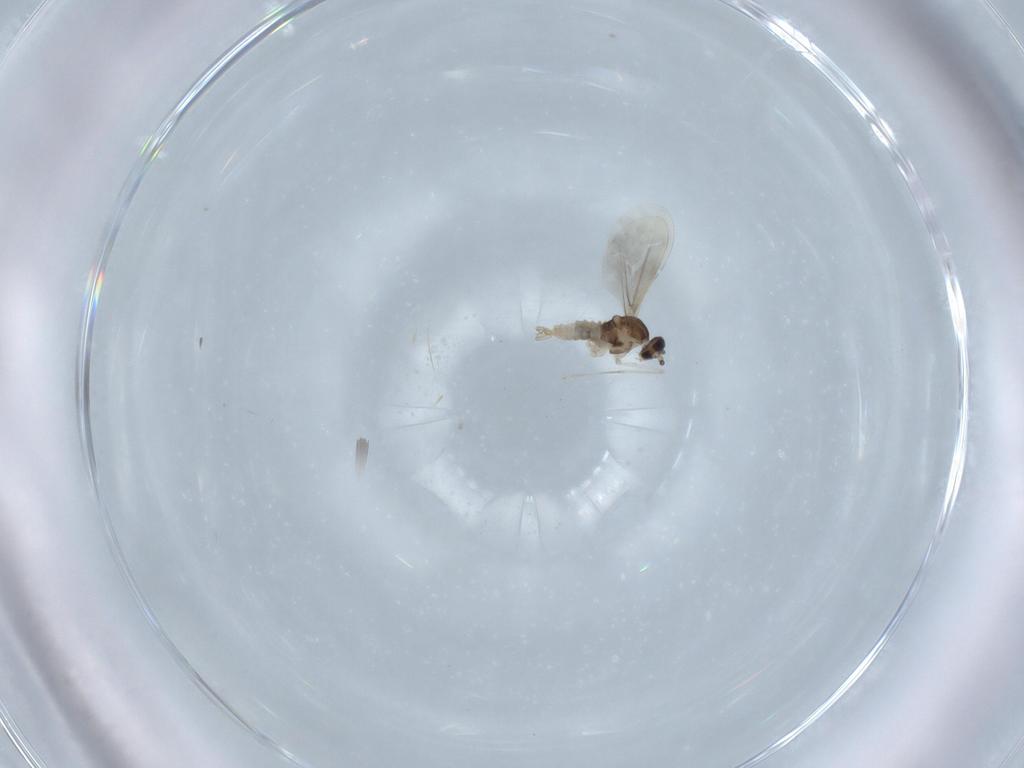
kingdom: Animalia
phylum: Arthropoda
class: Insecta
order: Diptera
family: Cecidomyiidae
